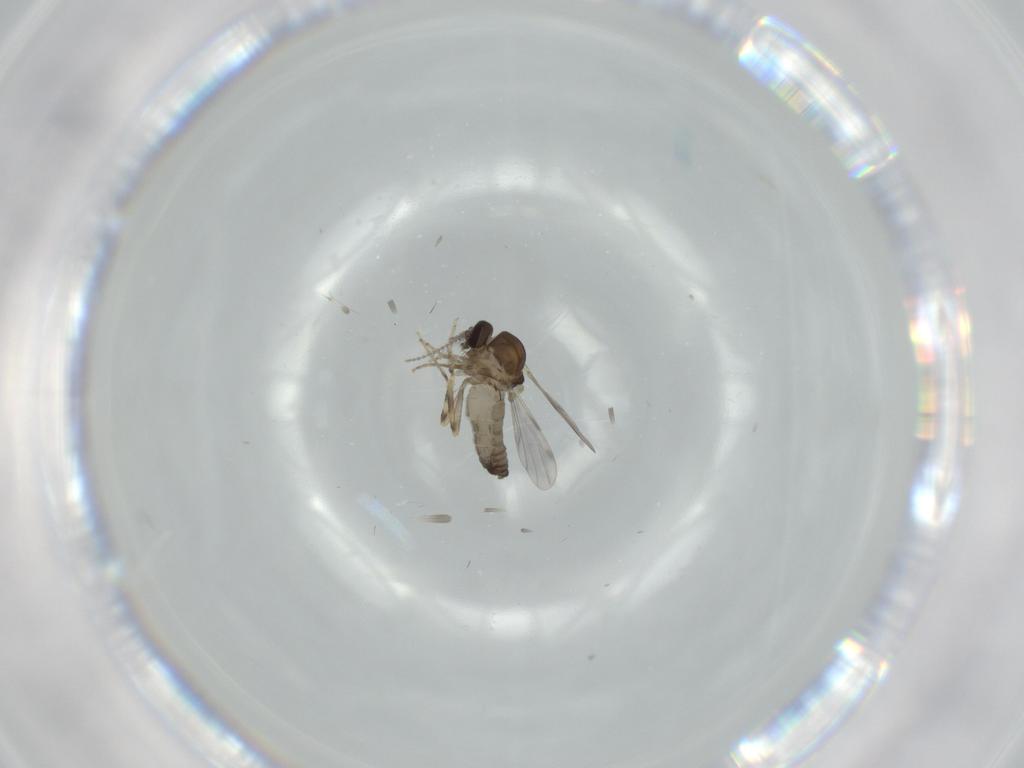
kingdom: Animalia
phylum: Arthropoda
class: Insecta
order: Diptera
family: Ceratopogonidae
